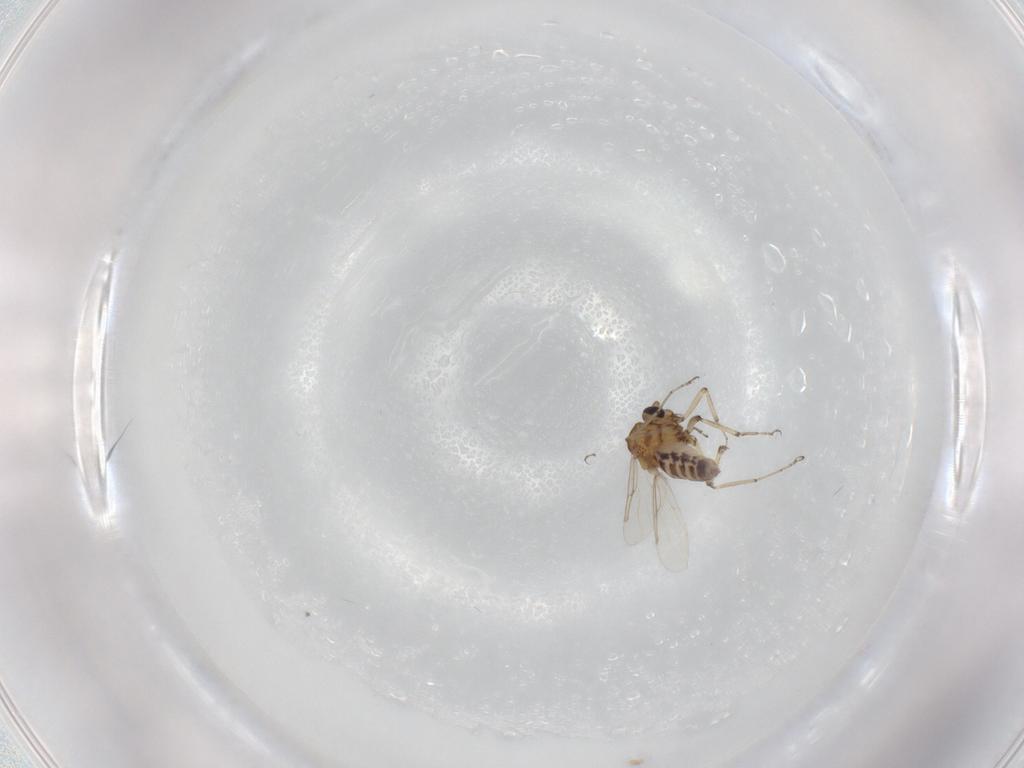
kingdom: Animalia
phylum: Arthropoda
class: Insecta
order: Diptera
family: Ceratopogonidae
